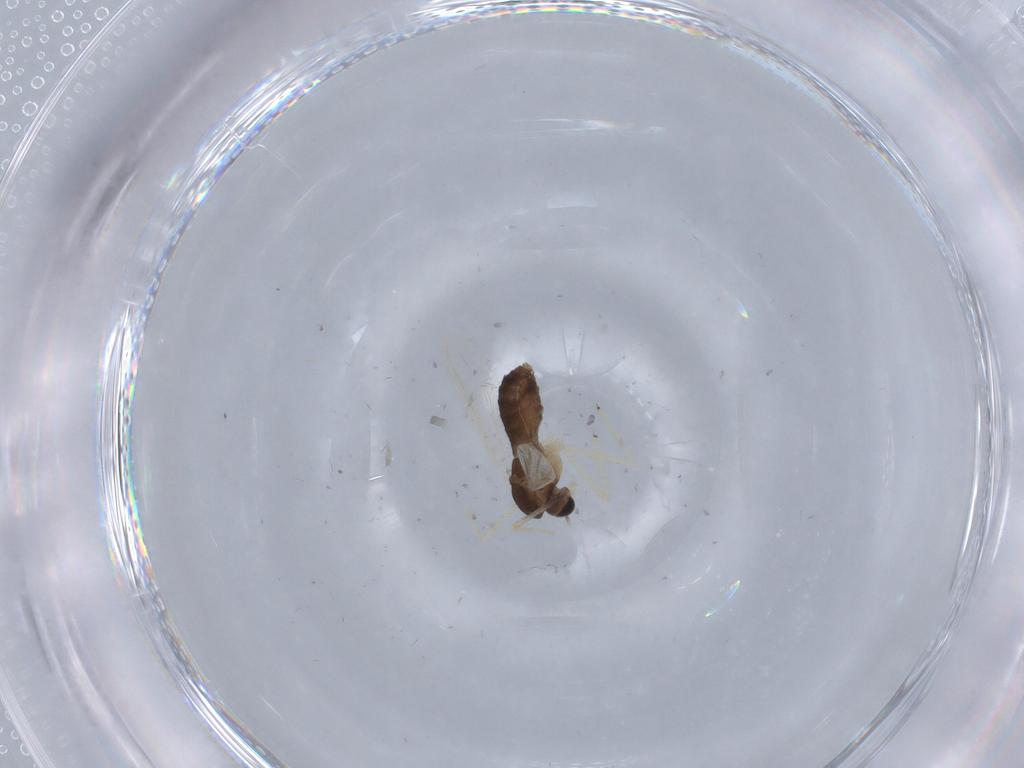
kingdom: Animalia
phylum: Arthropoda
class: Insecta
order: Diptera
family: Chironomidae
